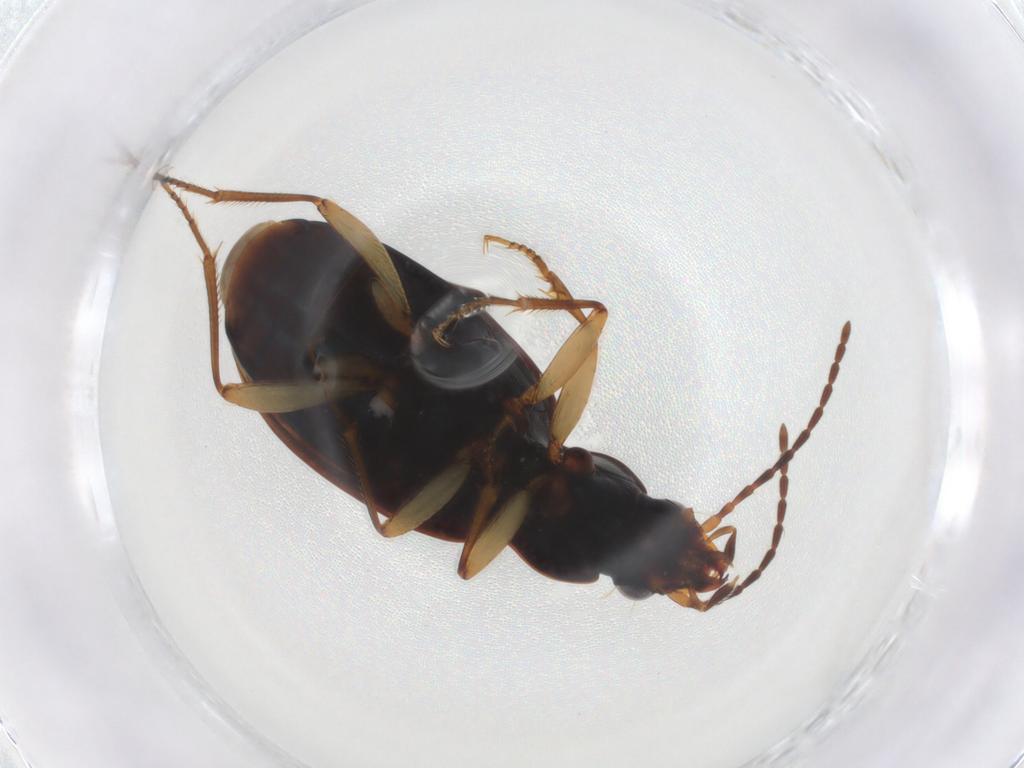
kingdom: Animalia
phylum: Arthropoda
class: Insecta
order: Coleoptera
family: Carabidae
